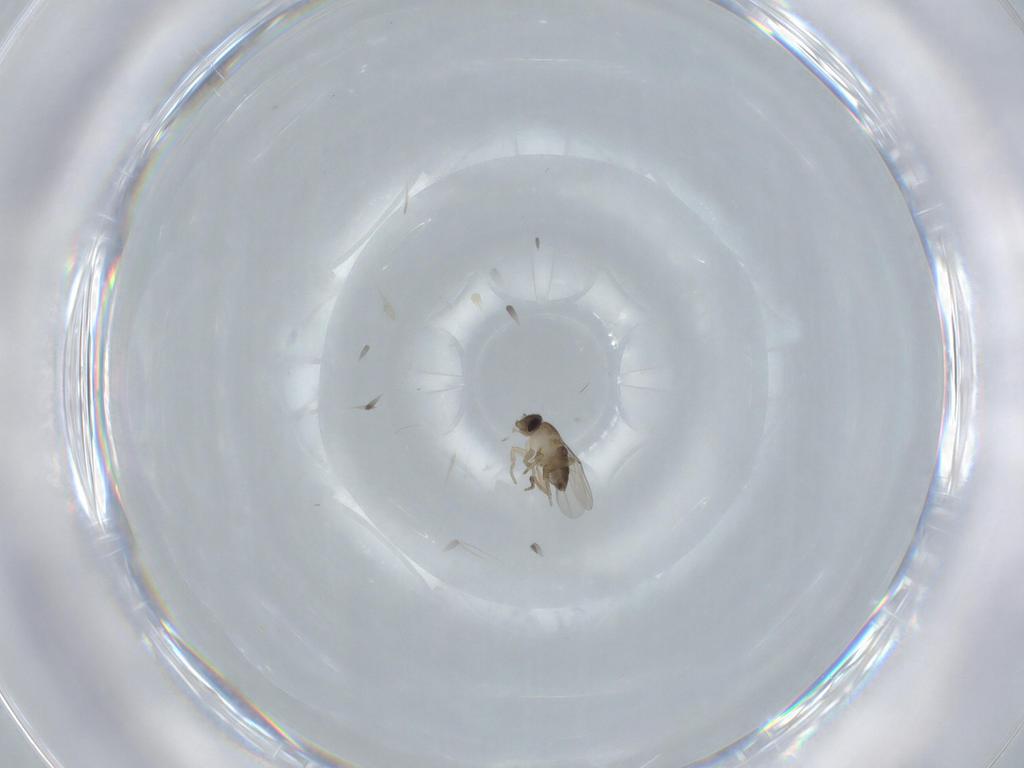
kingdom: Animalia
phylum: Arthropoda
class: Insecta
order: Diptera
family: Phoridae
